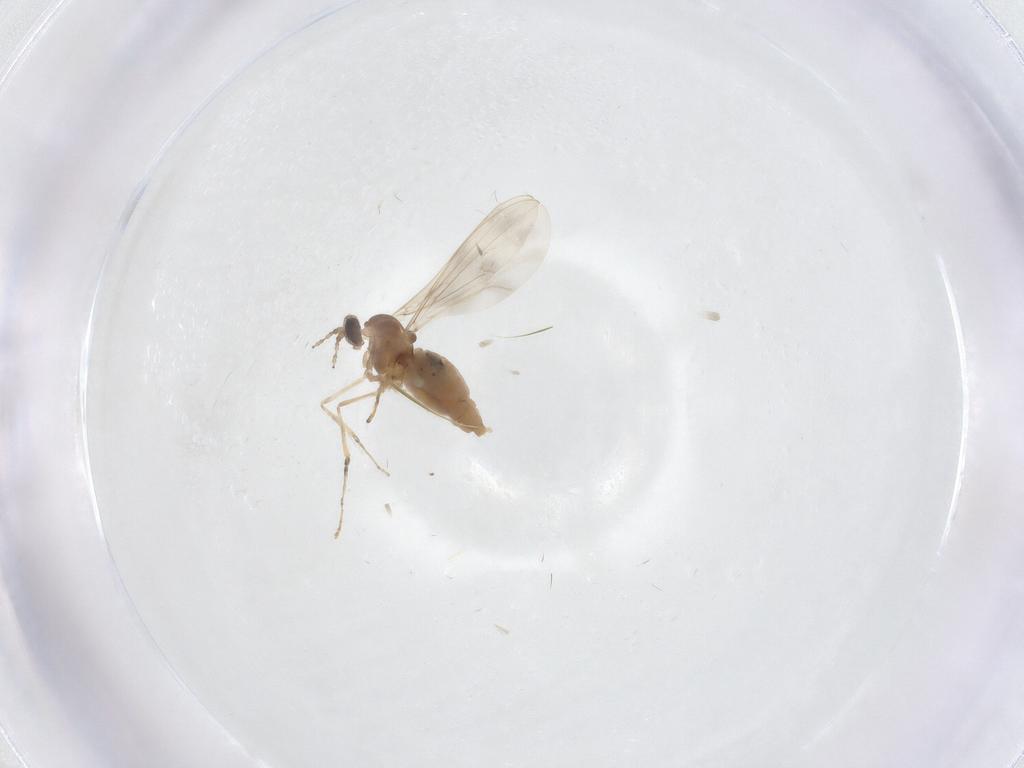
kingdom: Animalia
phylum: Arthropoda
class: Insecta
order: Diptera
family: Cecidomyiidae
